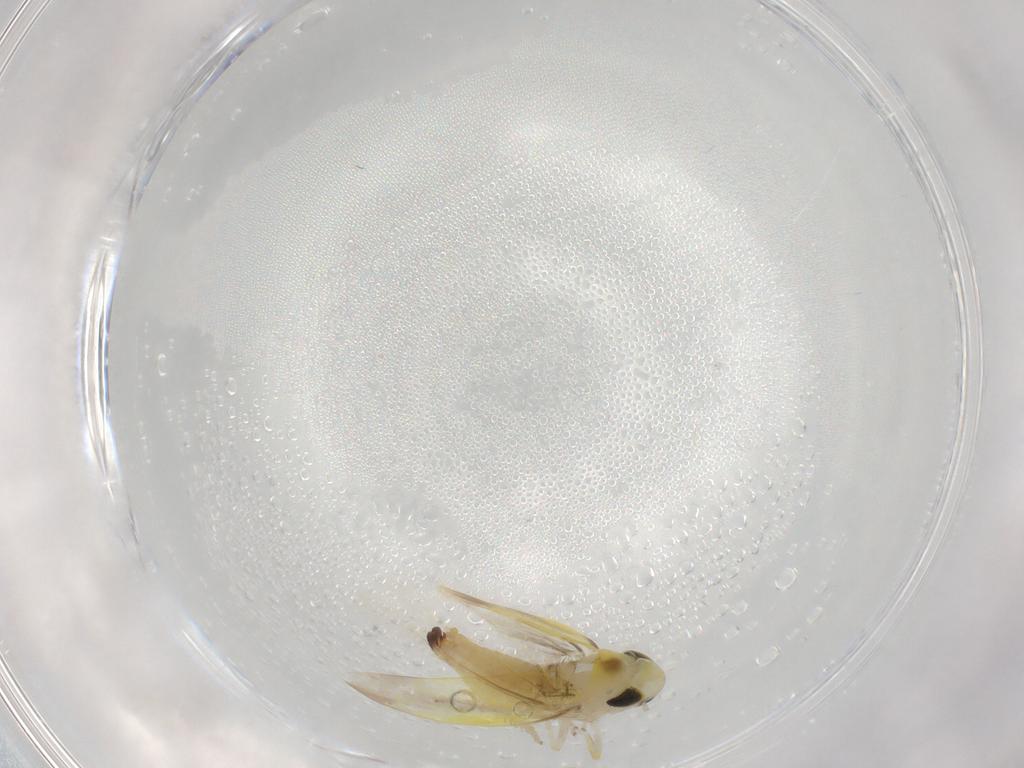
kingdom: Animalia
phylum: Arthropoda
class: Insecta
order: Hemiptera
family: Cicadellidae
